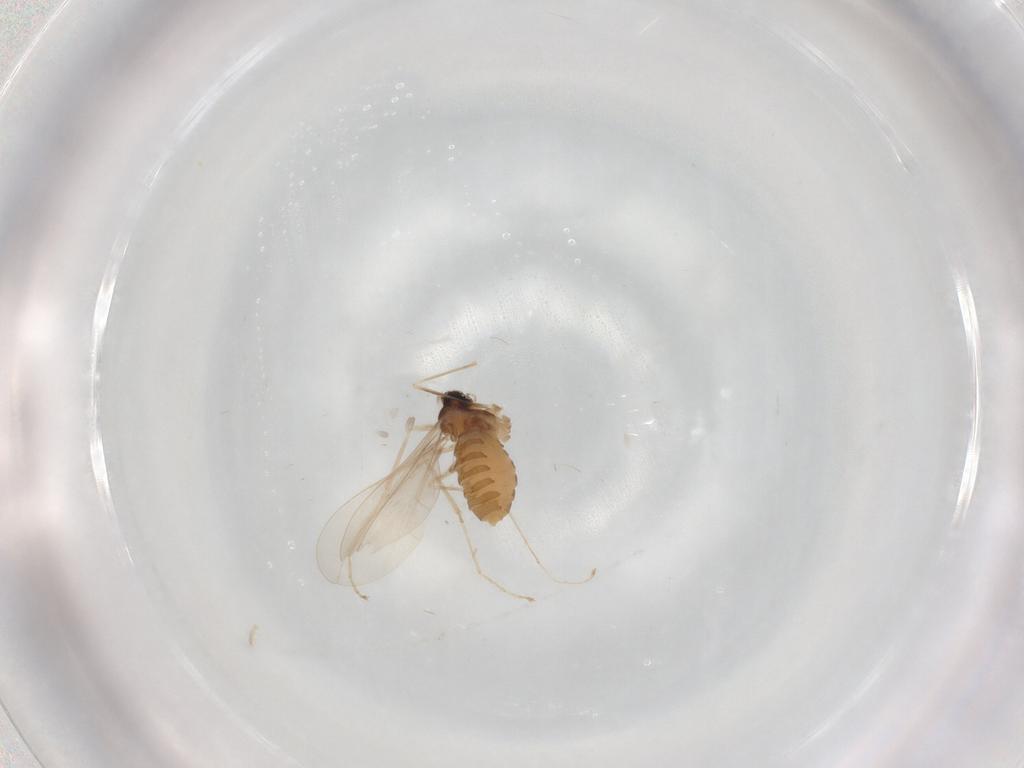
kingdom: Animalia
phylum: Arthropoda
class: Insecta
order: Diptera
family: Cecidomyiidae
